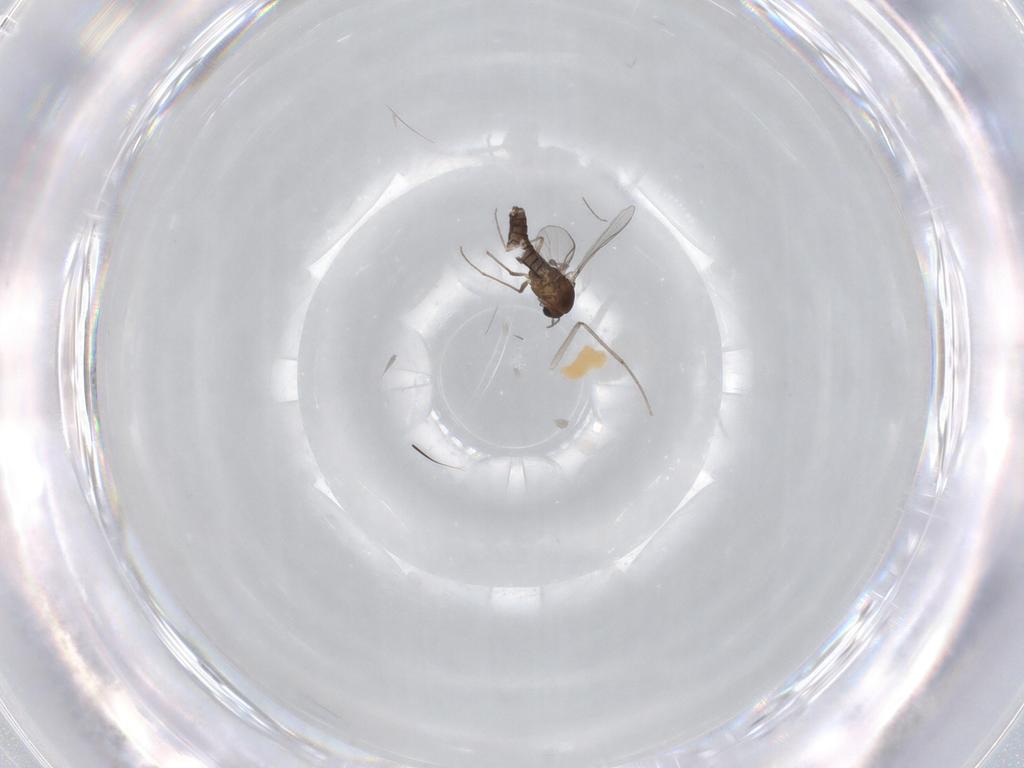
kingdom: Animalia
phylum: Arthropoda
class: Insecta
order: Diptera
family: Chironomidae
